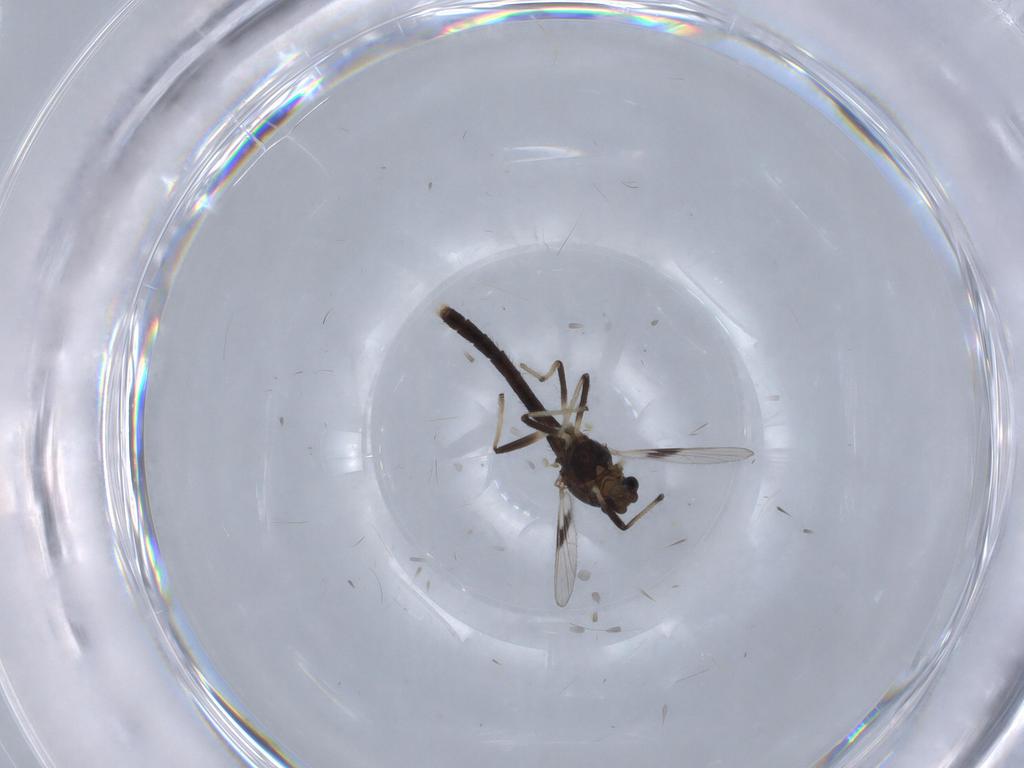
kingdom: Animalia
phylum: Arthropoda
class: Insecta
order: Diptera
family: Chironomidae
